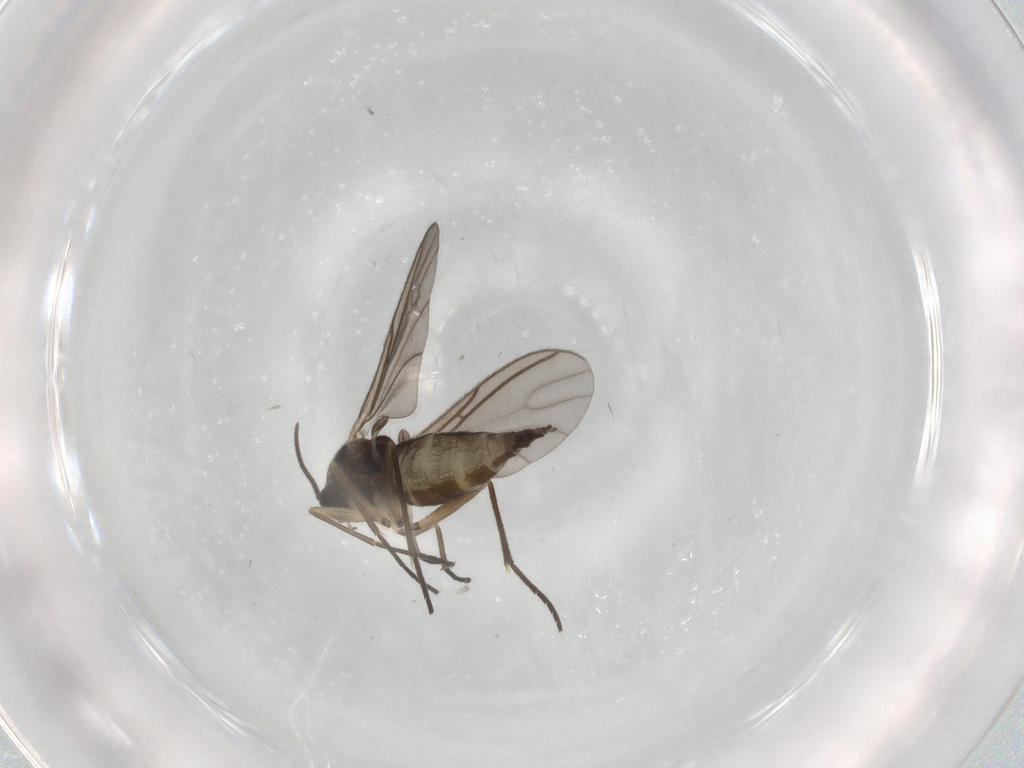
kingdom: Animalia
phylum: Arthropoda
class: Insecta
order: Diptera
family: Sciaridae
